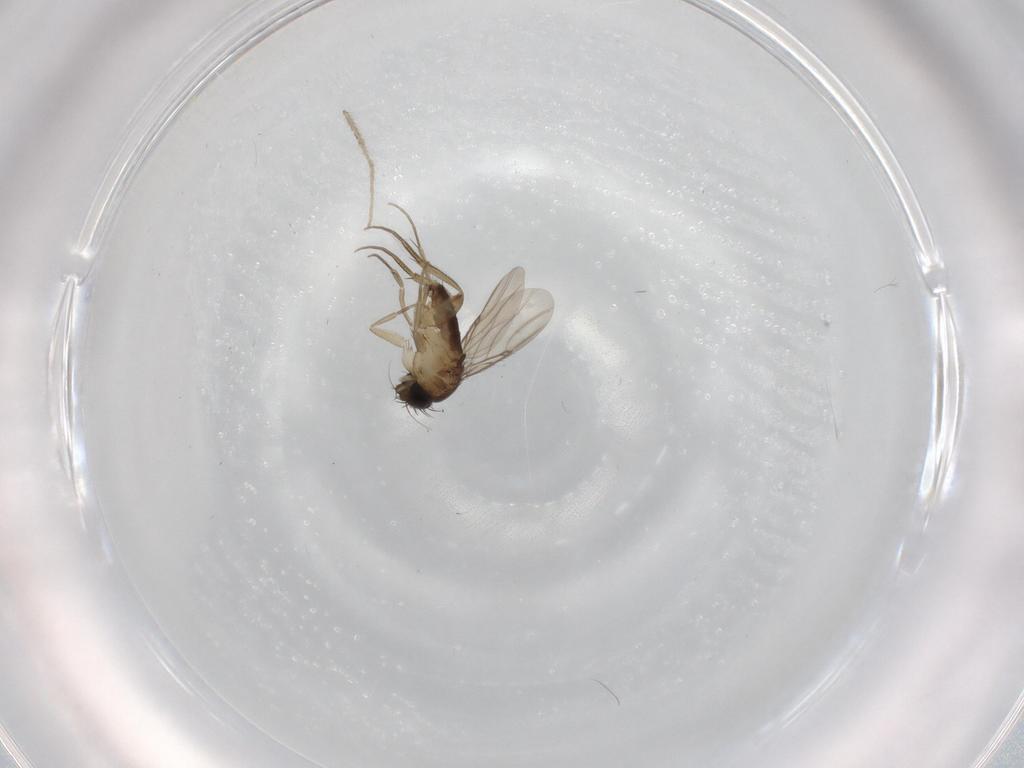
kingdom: Animalia
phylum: Arthropoda
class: Insecta
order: Diptera
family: Phoridae
